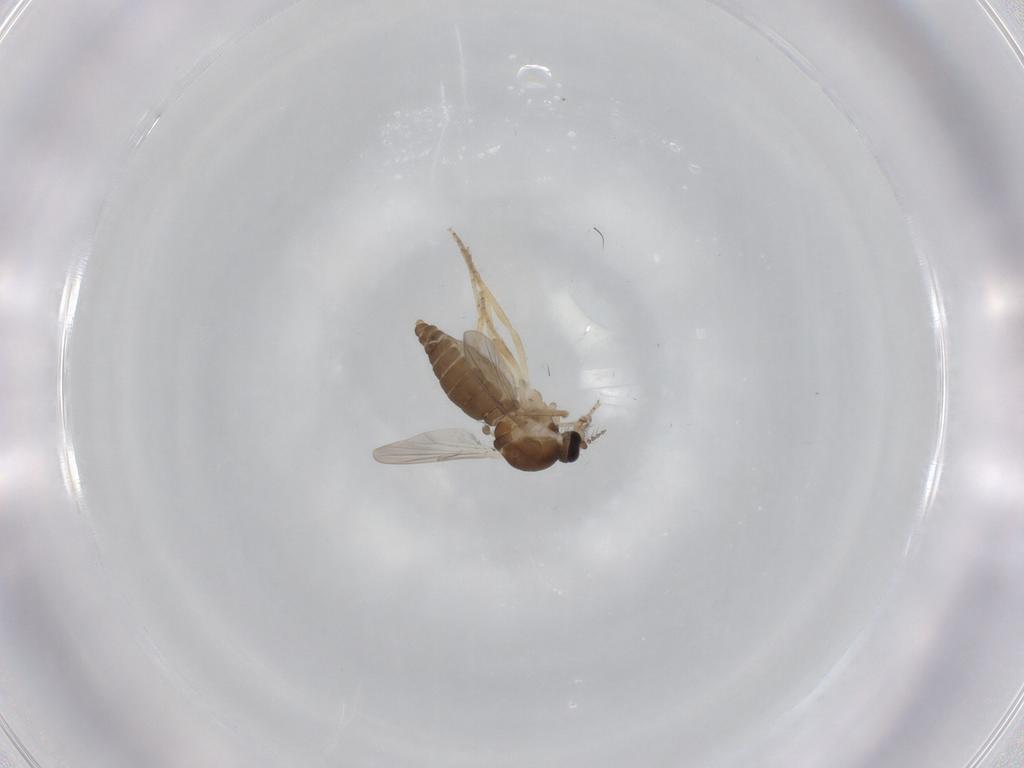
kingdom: Animalia
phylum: Arthropoda
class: Insecta
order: Diptera
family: Ceratopogonidae
